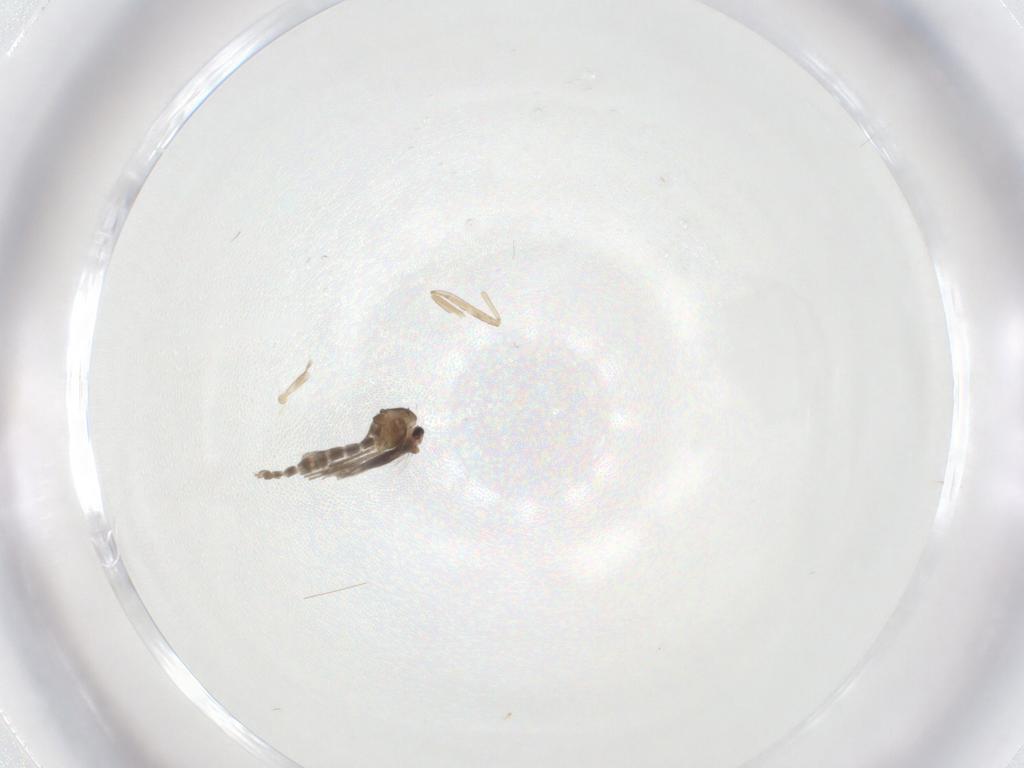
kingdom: Animalia
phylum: Arthropoda
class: Insecta
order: Diptera
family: Cecidomyiidae
